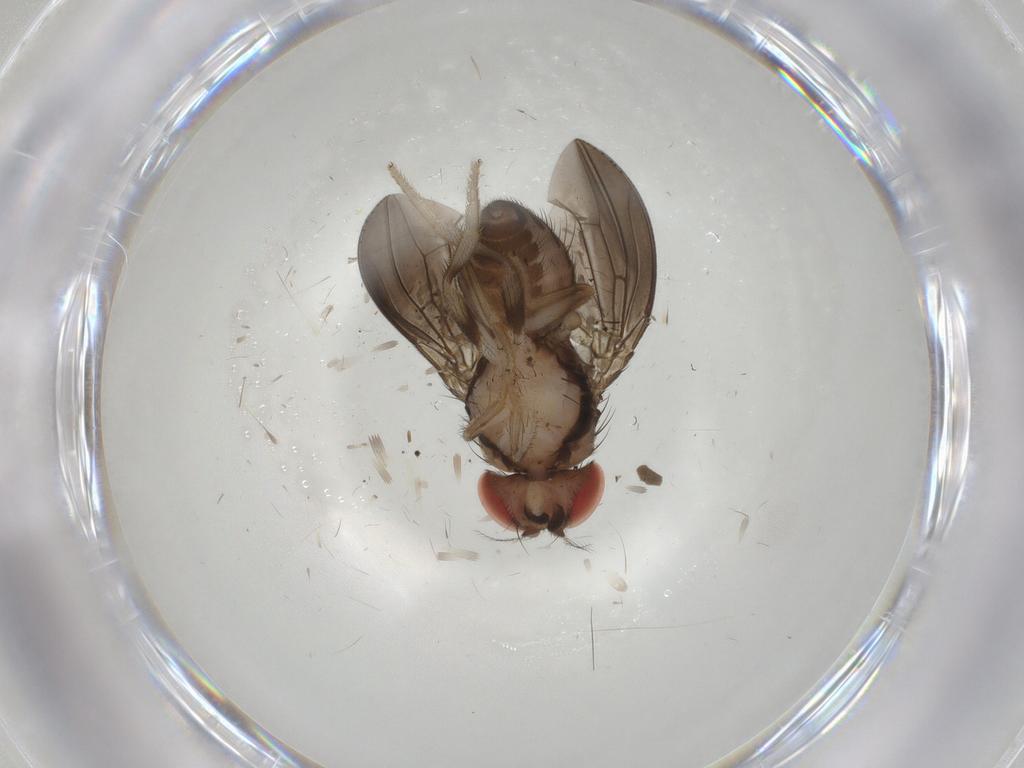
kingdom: Animalia
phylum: Arthropoda
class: Insecta
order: Diptera
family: Drosophilidae
